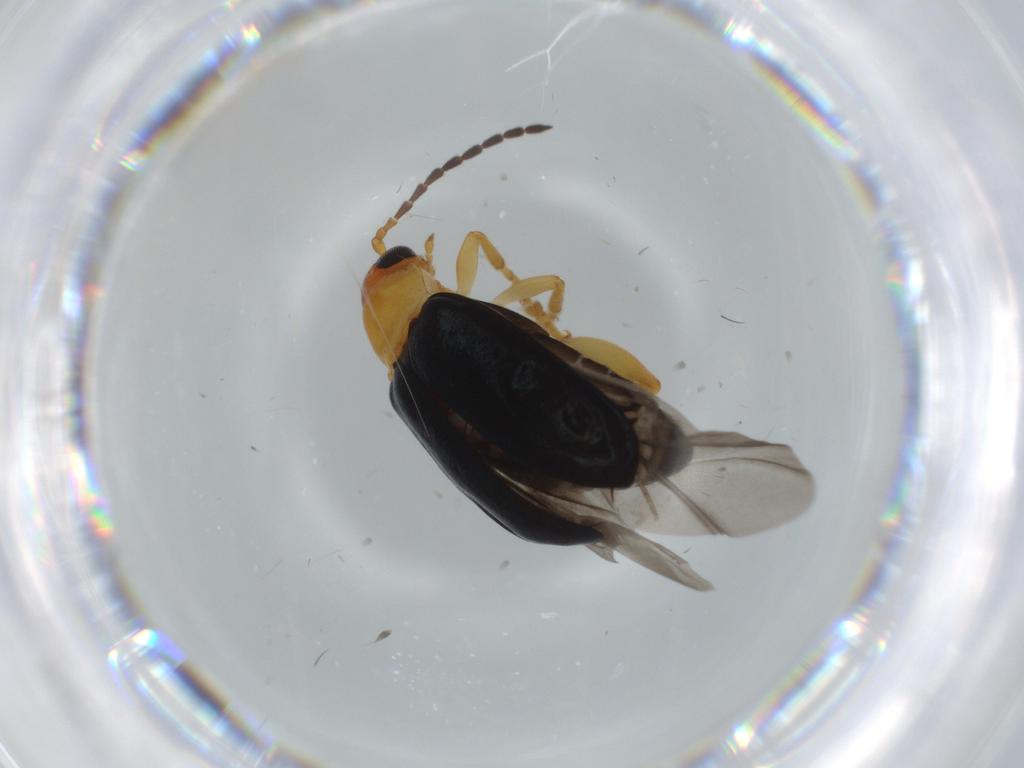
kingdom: Animalia
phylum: Arthropoda
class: Insecta
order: Coleoptera
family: Chrysomelidae
